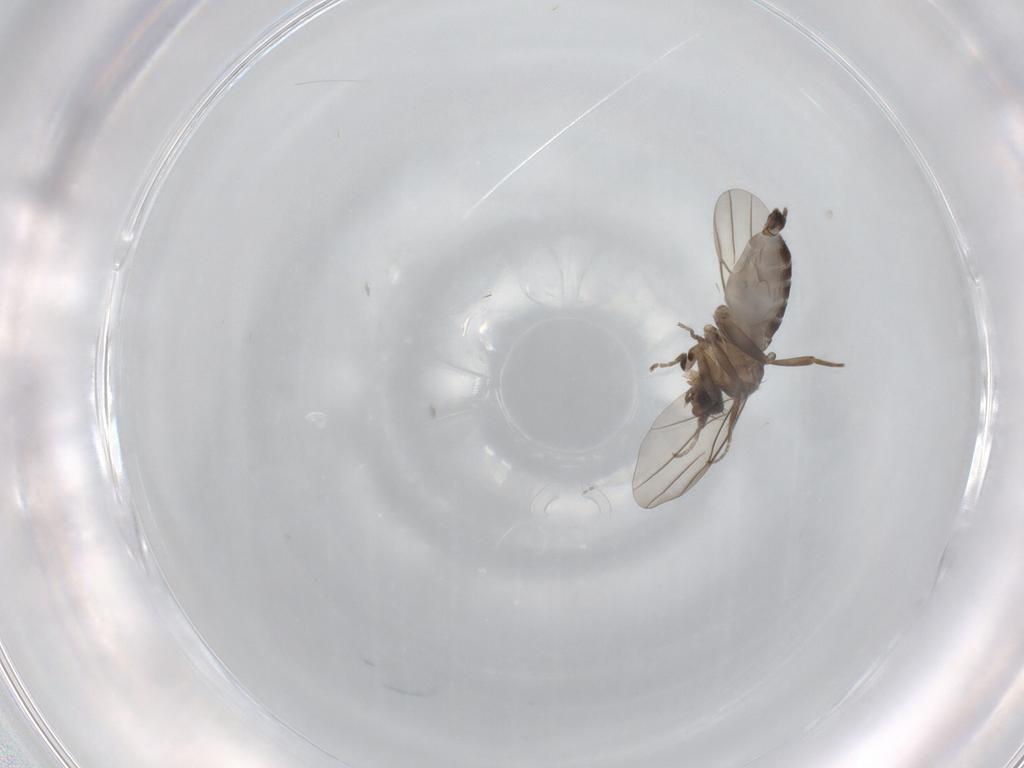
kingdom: Animalia
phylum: Arthropoda
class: Insecta
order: Diptera
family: Phoridae
